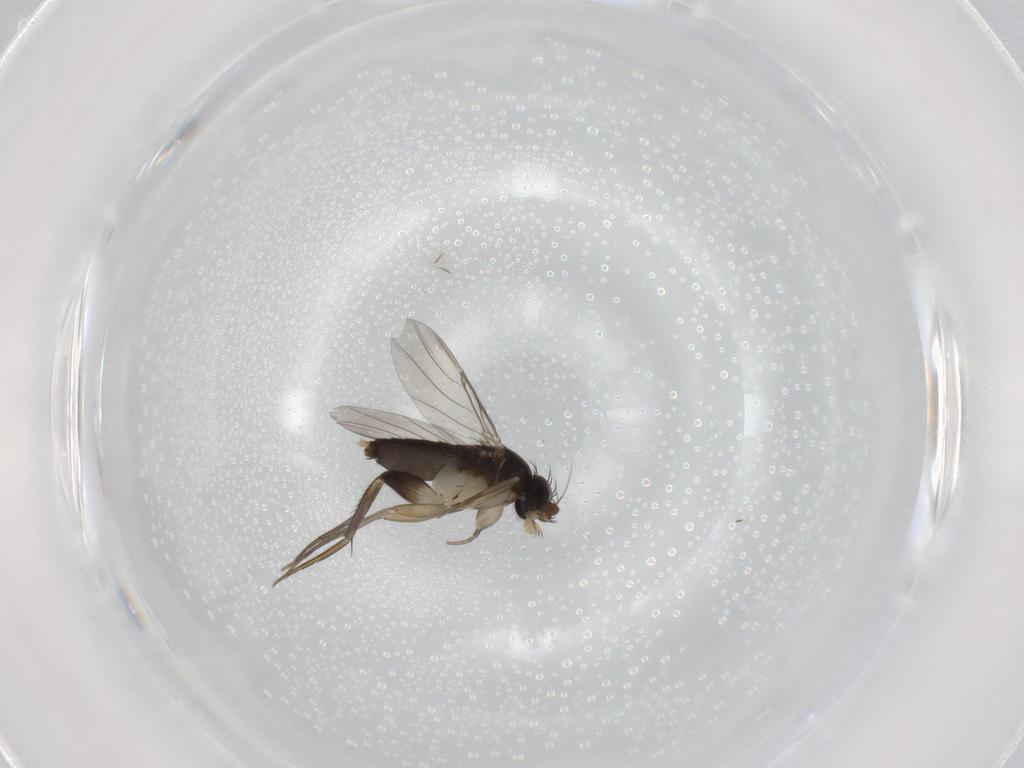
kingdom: Animalia
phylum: Arthropoda
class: Insecta
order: Diptera
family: Phoridae
